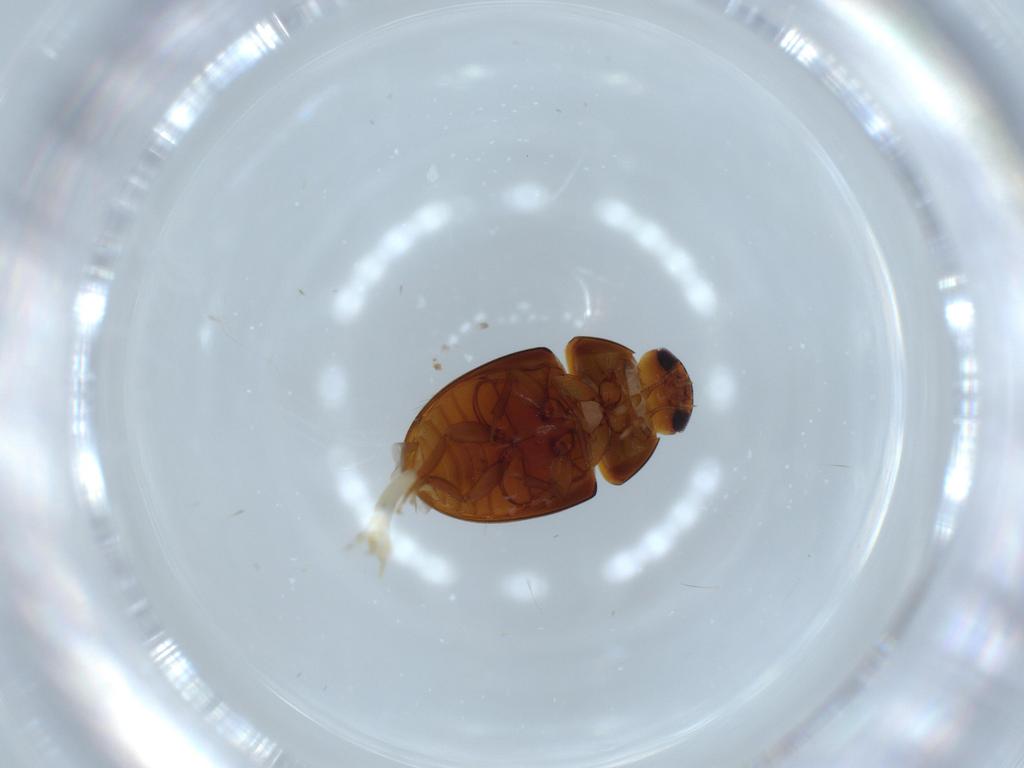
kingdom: Animalia
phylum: Arthropoda
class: Insecta
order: Coleoptera
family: Phalacridae
